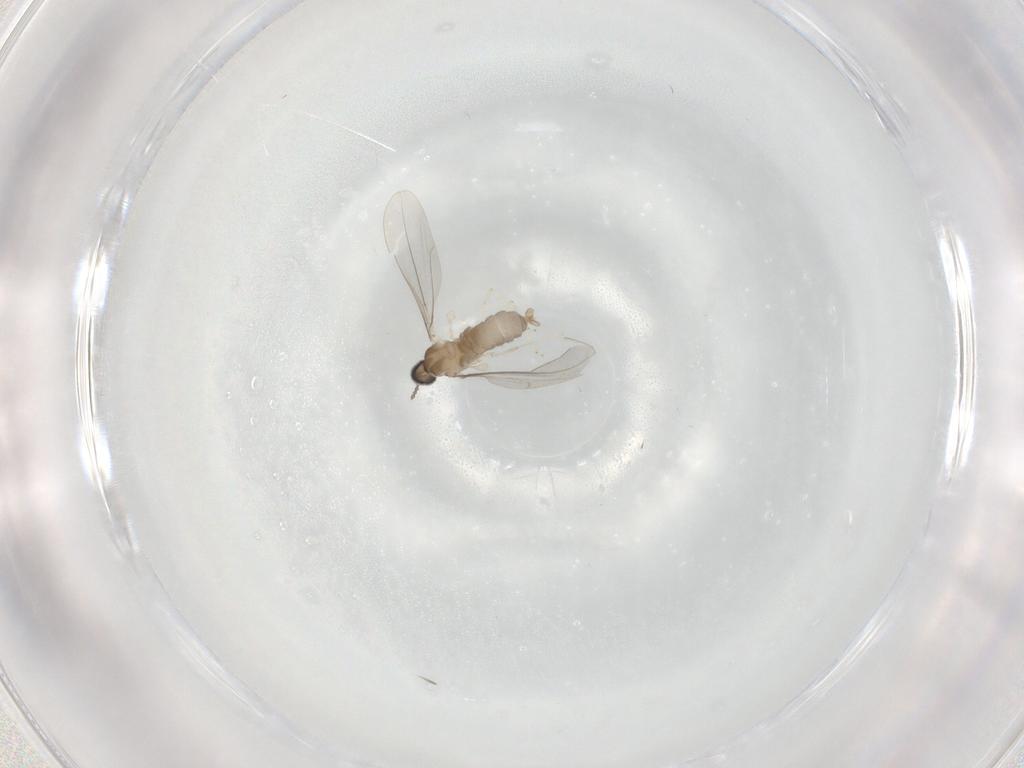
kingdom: Animalia
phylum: Arthropoda
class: Insecta
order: Diptera
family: Cecidomyiidae
